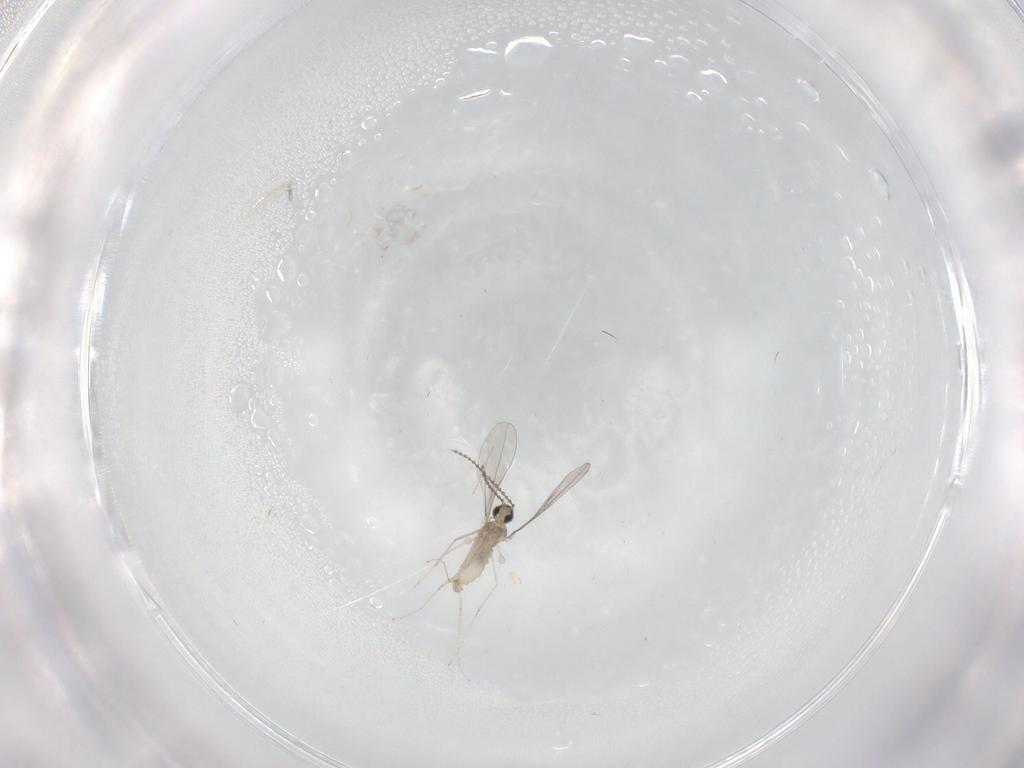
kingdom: Animalia
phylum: Arthropoda
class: Insecta
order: Diptera
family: Cecidomyiidae
